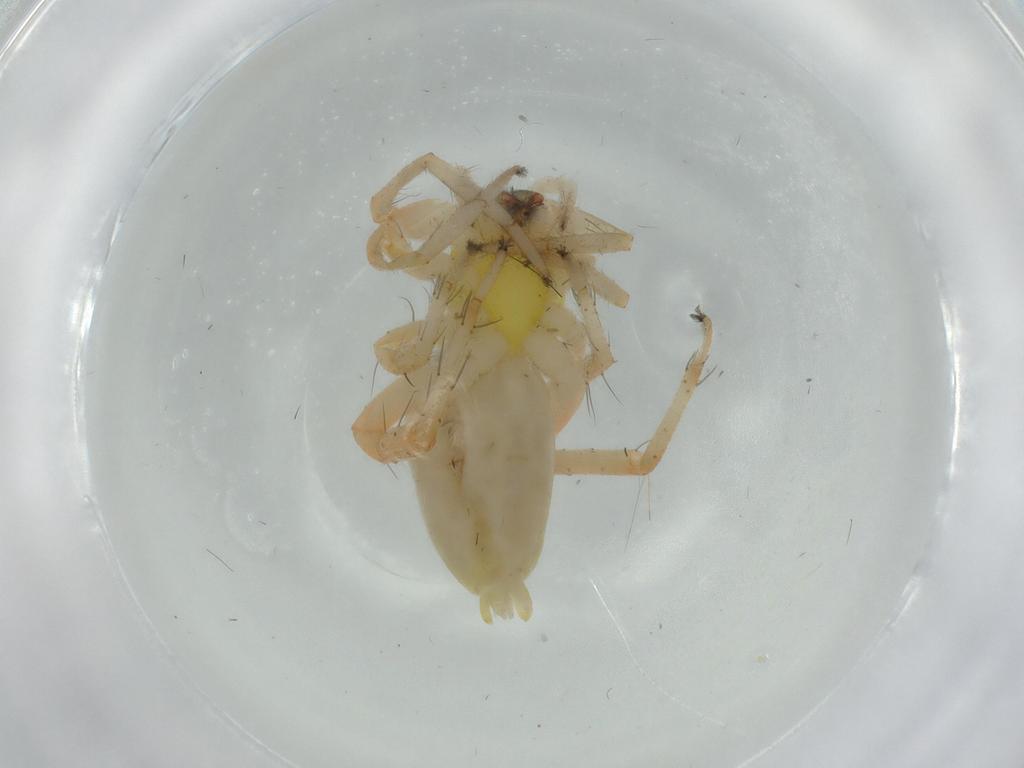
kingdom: Animalia
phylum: Arthropoda
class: Arachnida
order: Araneae
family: Anyphaenidae
